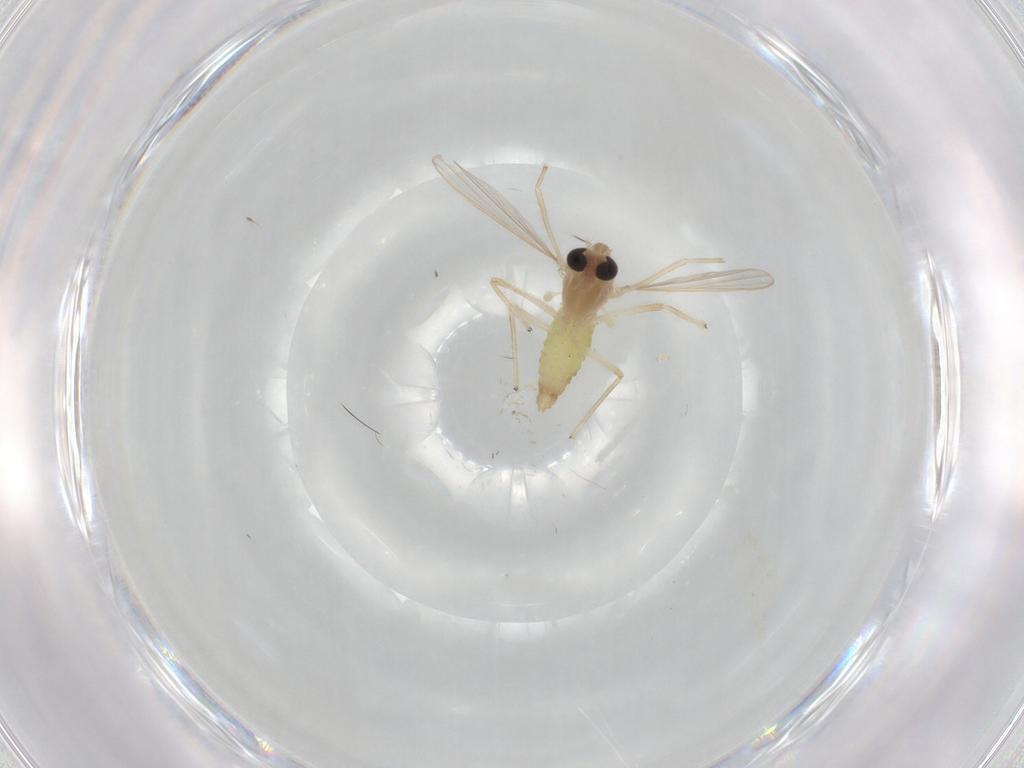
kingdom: Animalia
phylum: Arthropoda
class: Insecta
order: Diptera
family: Chironomidae
